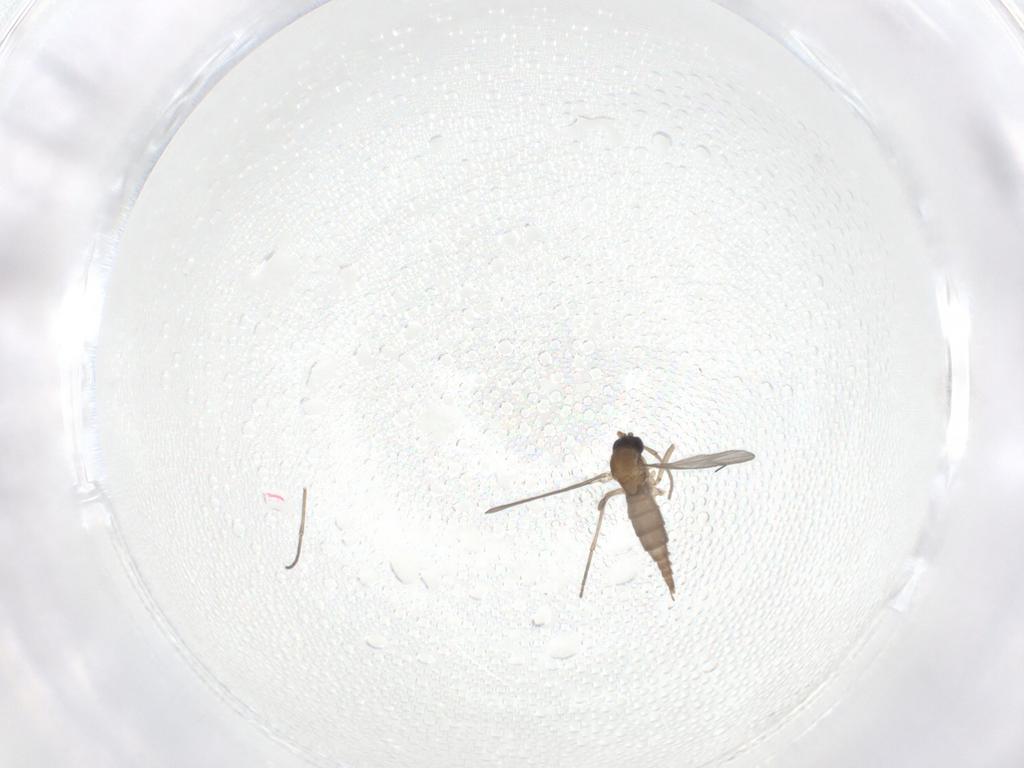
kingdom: Animalia
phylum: Arthropoda
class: Insecta
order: Diptera
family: Sciaridae
